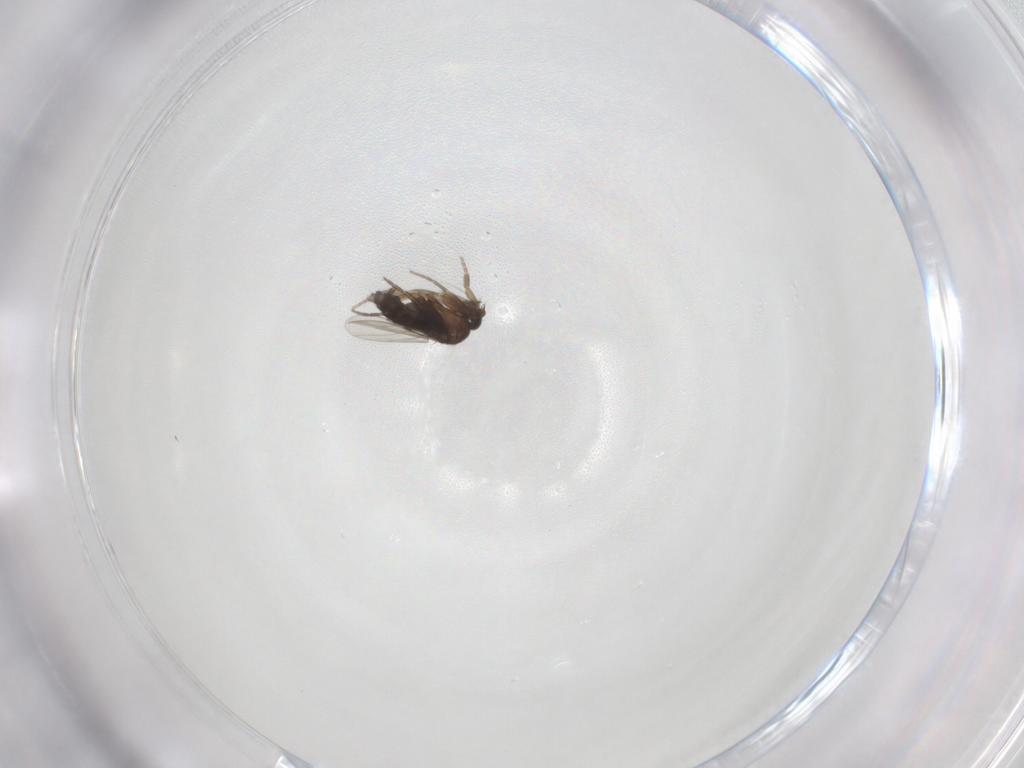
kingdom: Animalia
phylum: Arthropoda
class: Insecta
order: Diptera
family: Phoridae
